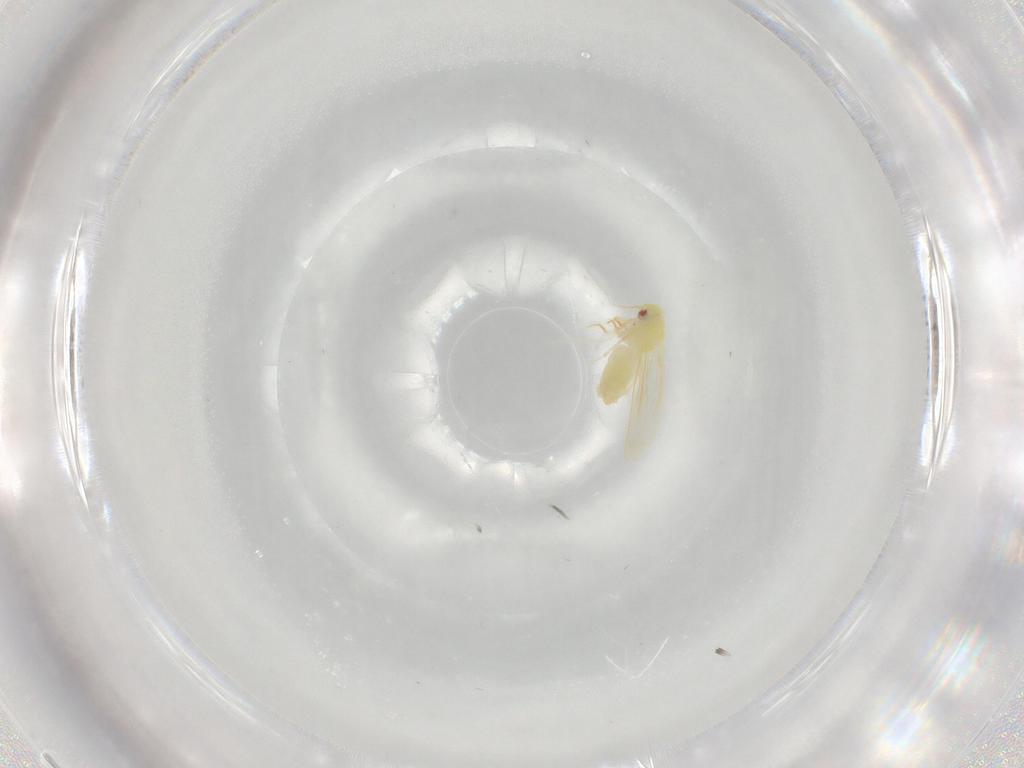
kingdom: Animalia
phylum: Arthropoda
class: Insecta
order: Hemiptera
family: Aleyrodidae
